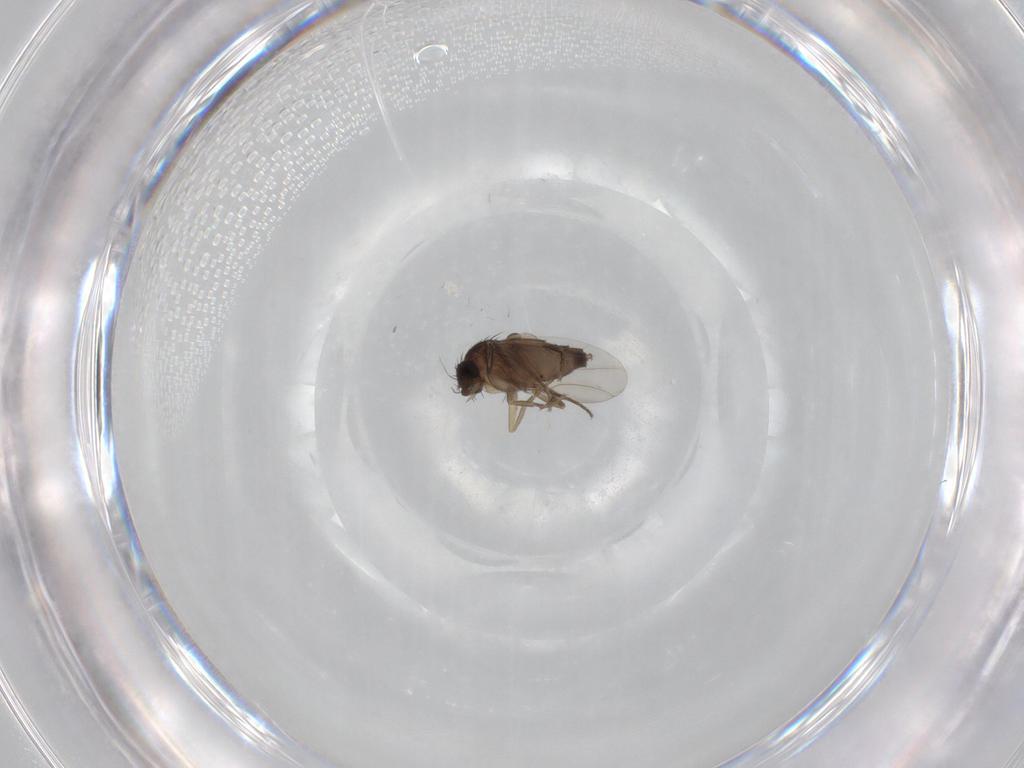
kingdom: Animalia
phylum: Arthropoda
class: Insecta
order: Diptera
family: Phoridae
